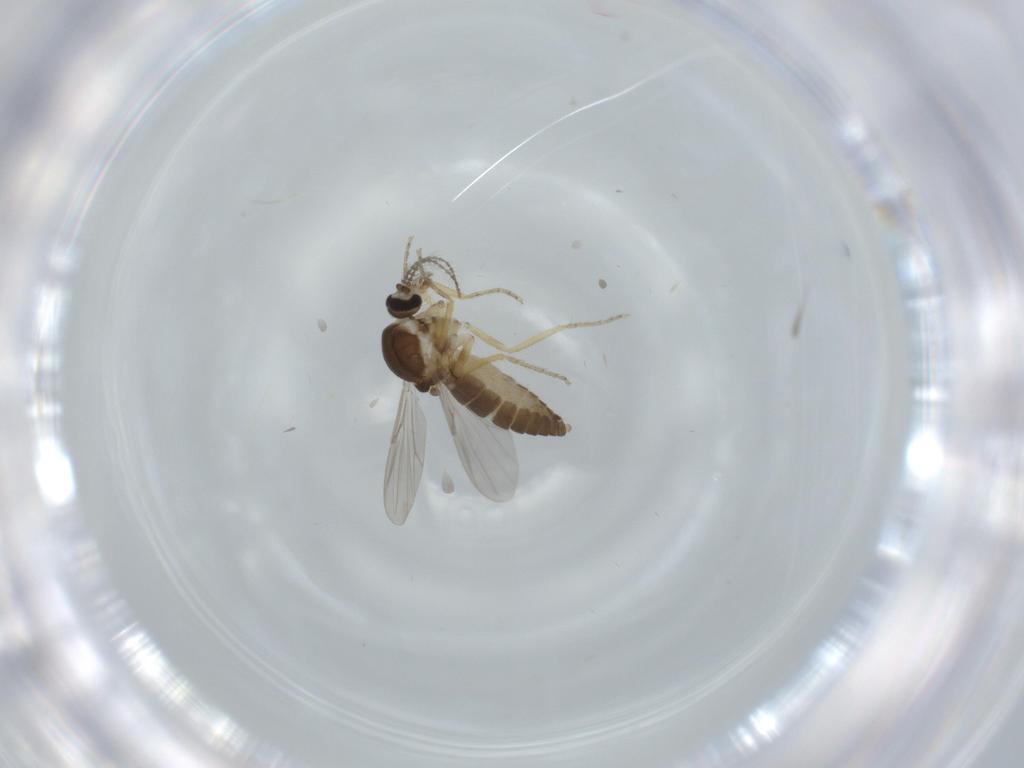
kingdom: Animalia
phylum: Arthropoda
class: Insecta
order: Diptera
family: Ceratopogonidae
